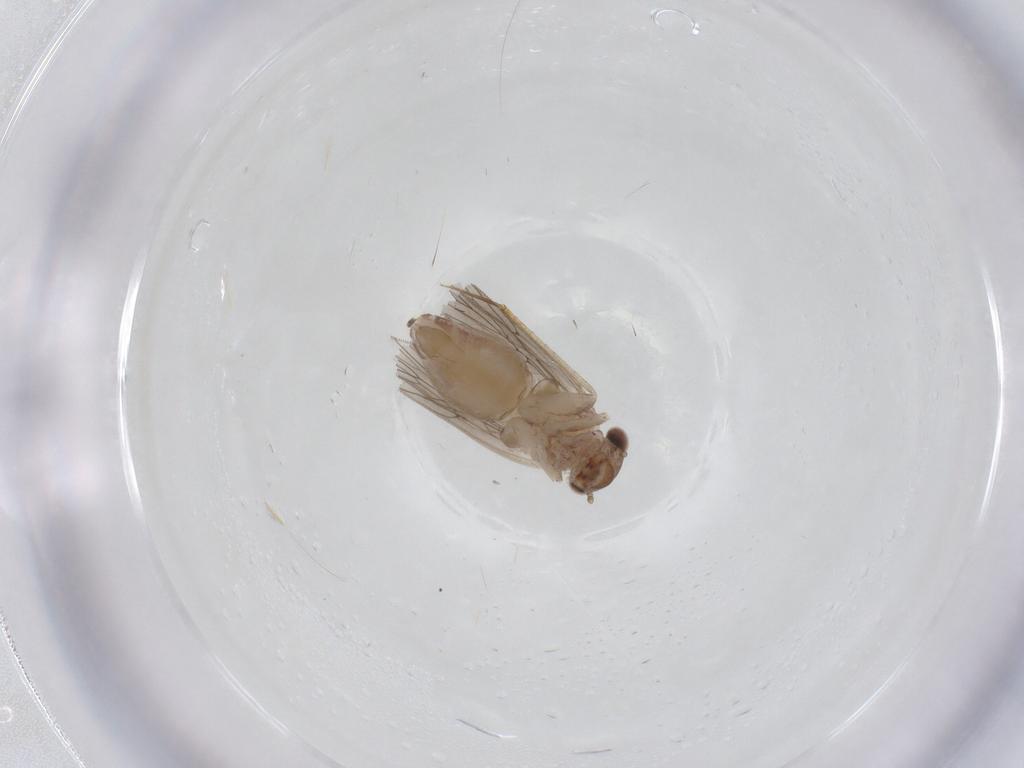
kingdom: Animalia
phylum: Arthropoda
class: Insecta
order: Psocodea
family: Lepidopsocidae
